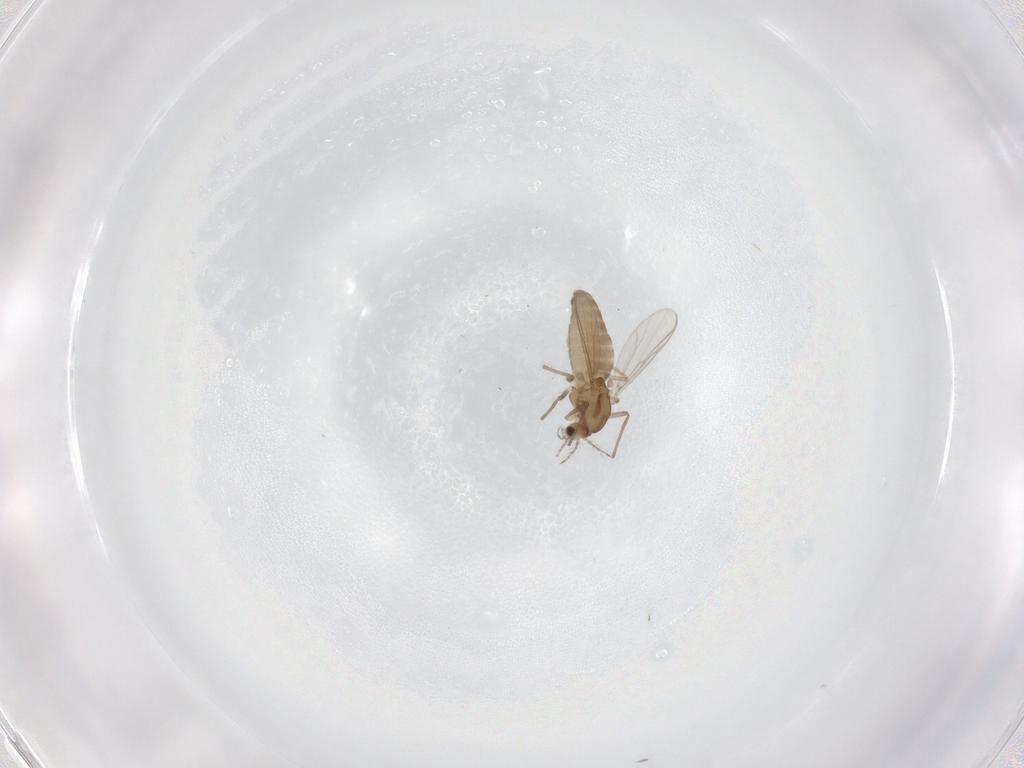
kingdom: Animalia
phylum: Arthropoda
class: Insecta
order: Diptera
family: Chironomidae
